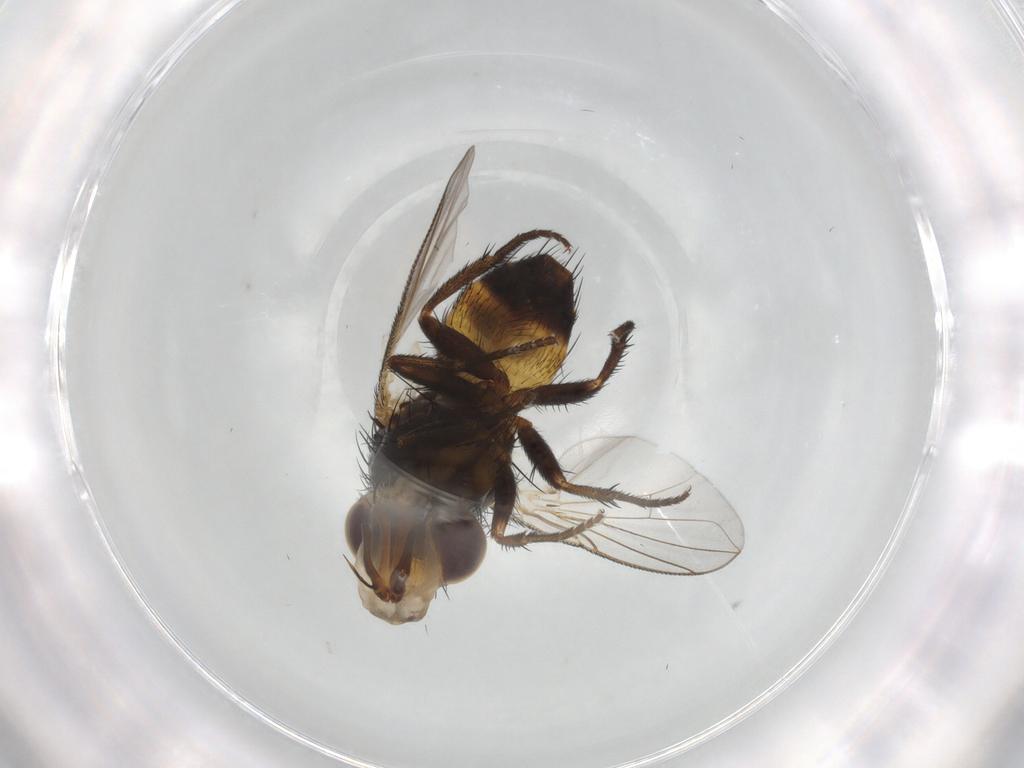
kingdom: Animalia
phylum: Arthropoda
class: Insecta
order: Diptera
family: Tachinidae
